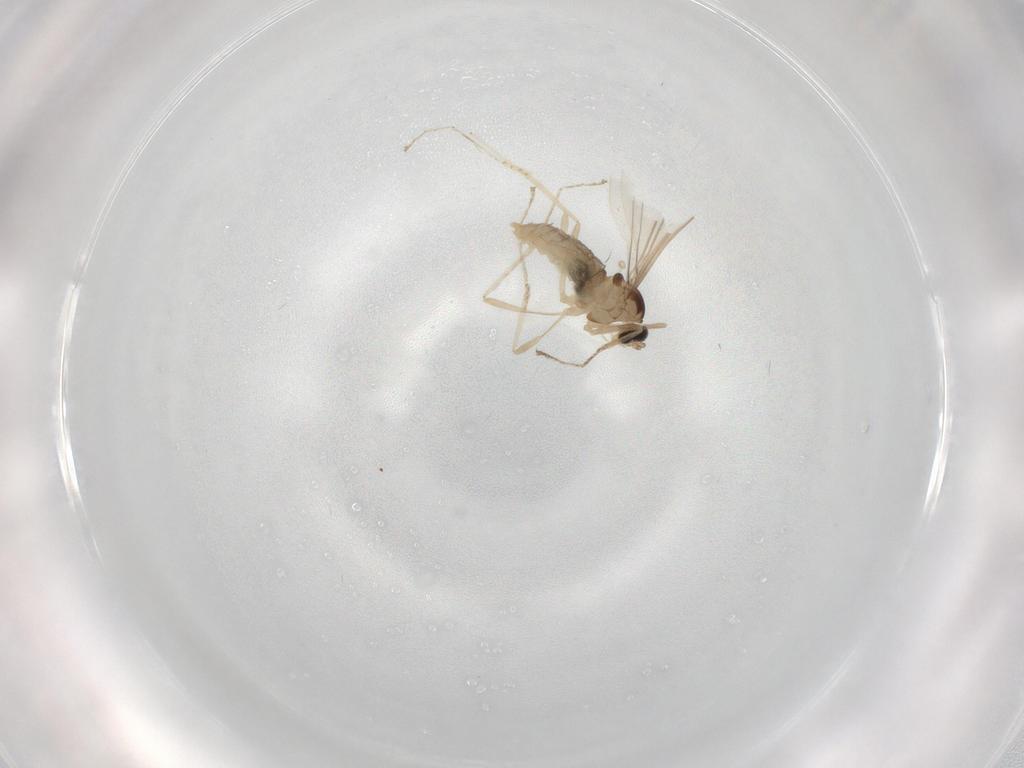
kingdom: Animalia
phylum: Arthropoda
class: Insecta
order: Diptera
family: Cecidomyiidae
